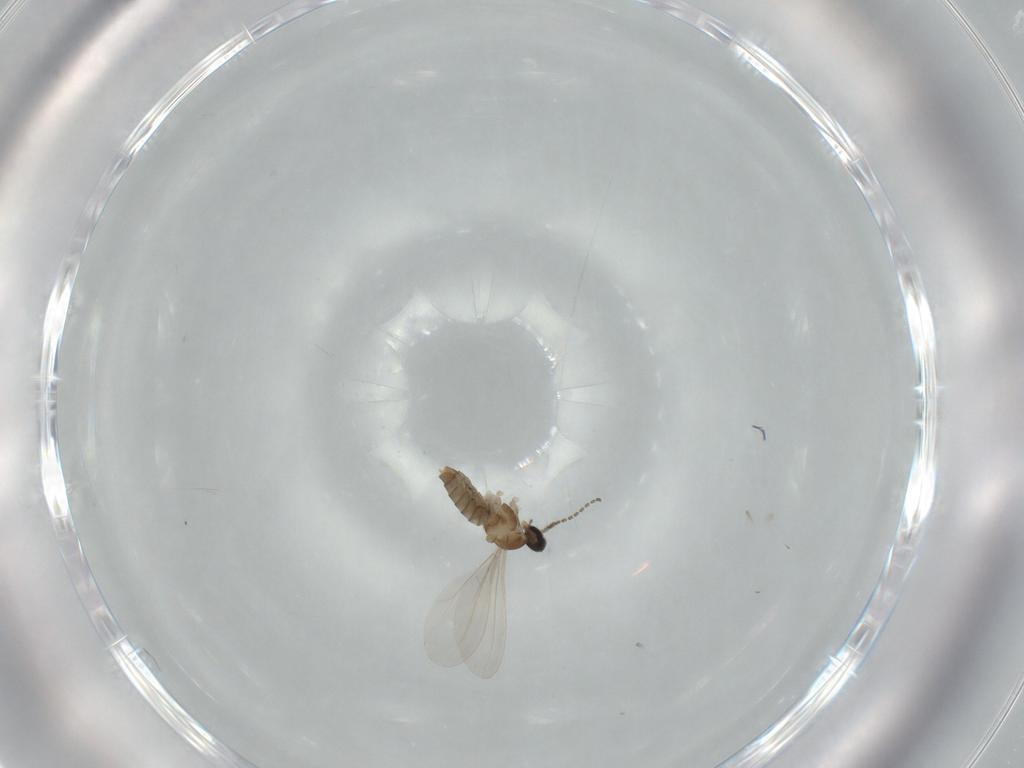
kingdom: Animalia
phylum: Arthropoda
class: Insecta
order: Diptera
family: Cecidomyiidae
